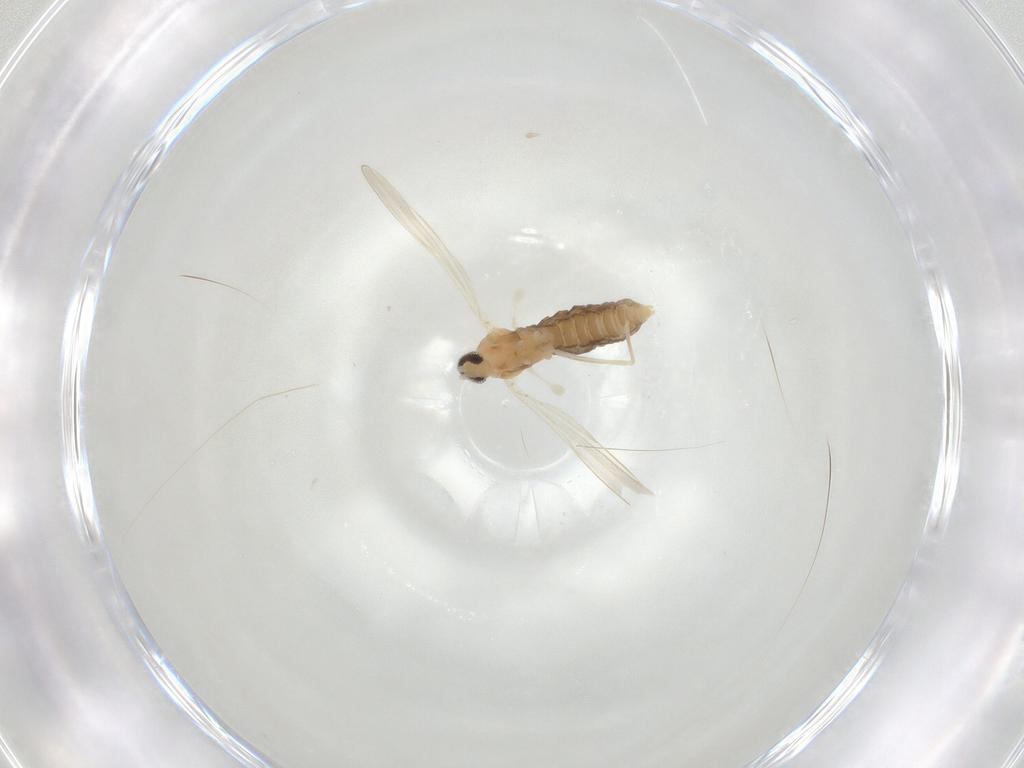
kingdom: Animalia
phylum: Arthropoda
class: Insecta
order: Diptera
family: Cecidomyiidae
